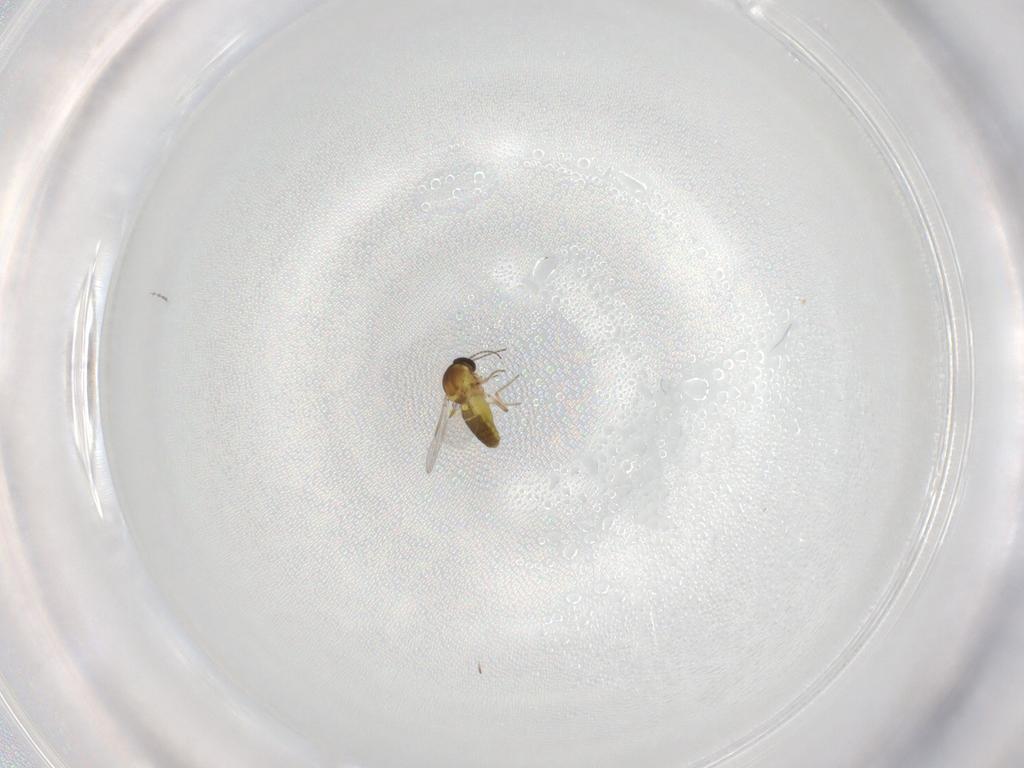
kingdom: Animalia
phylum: Arthropoda
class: Insecta
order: Diptera
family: Ceratopogonidae
